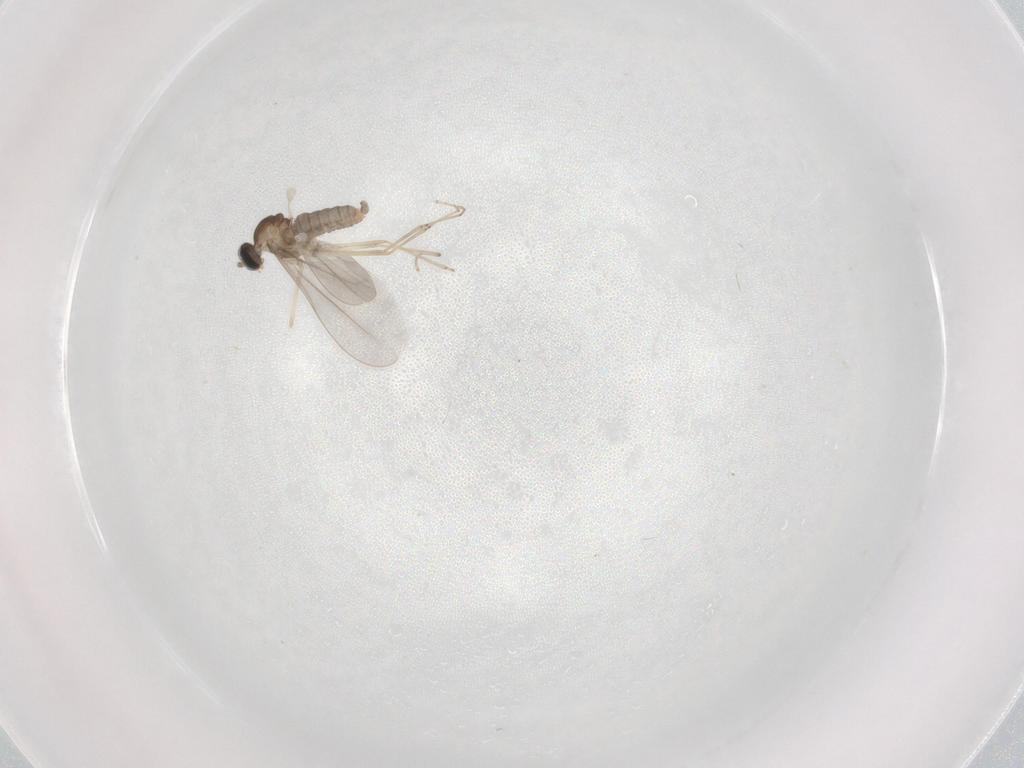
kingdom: Animalia
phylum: Arthropoda
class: Insecta
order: Diptera
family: Cecidomyiidae
